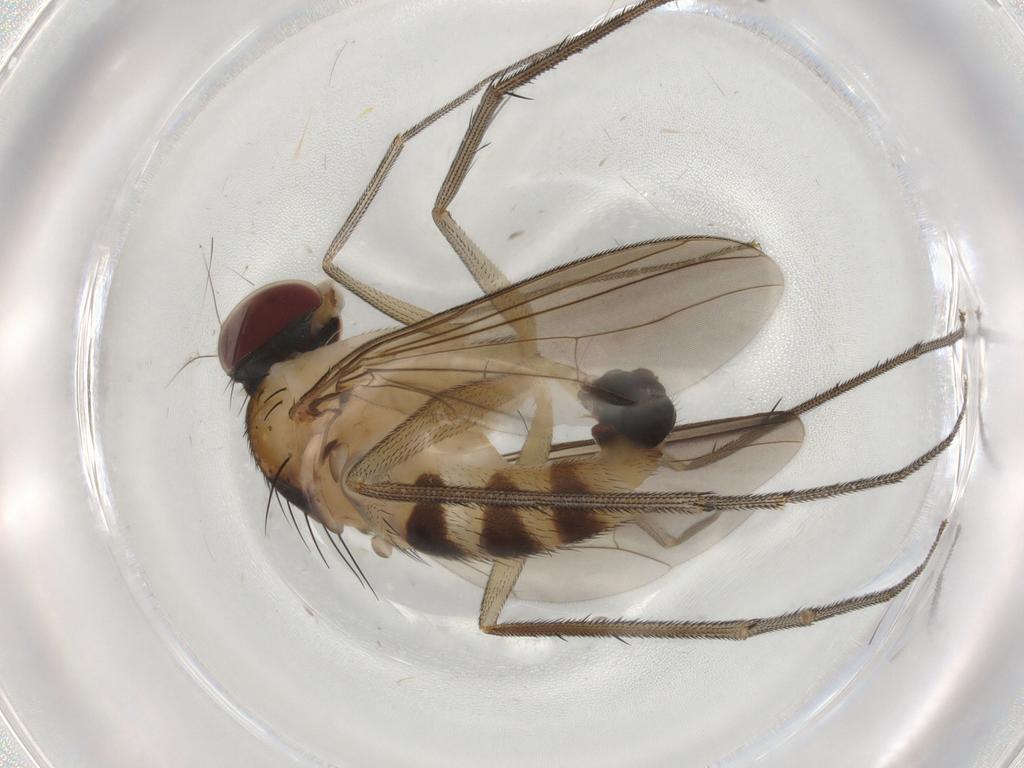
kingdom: Animalia
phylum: Arthropoda
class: Insecta
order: Diptera
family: Dolichopodidae
